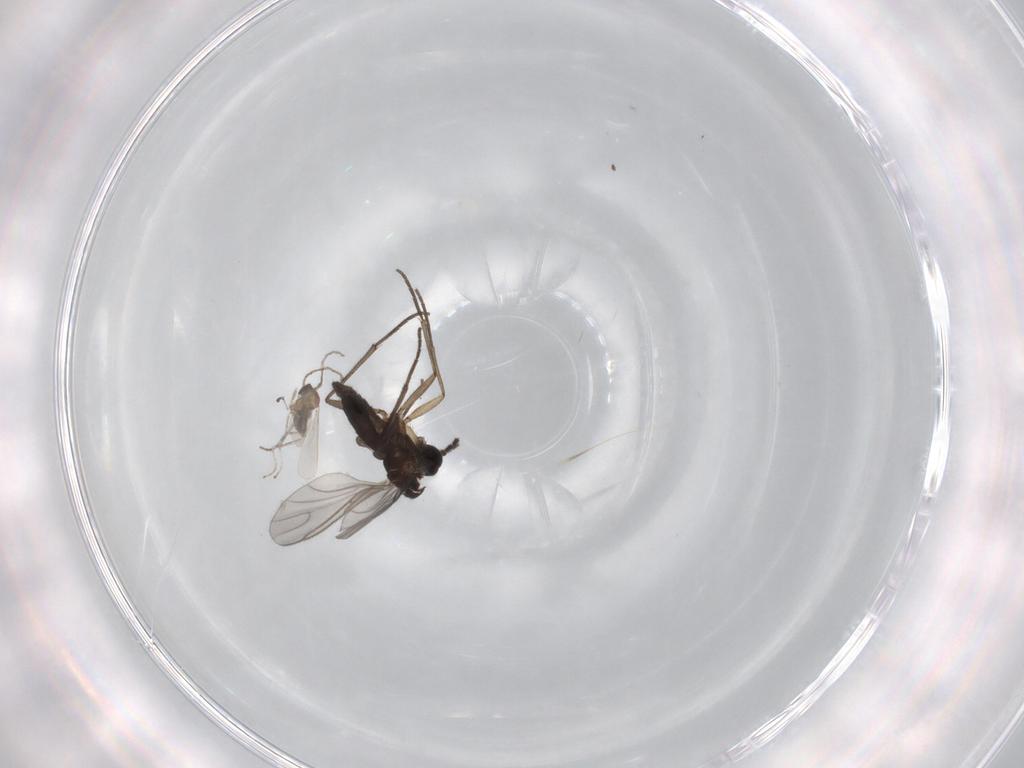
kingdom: Animalia
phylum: Arthropoda
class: Insecta
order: Diptera
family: Sciaridae
